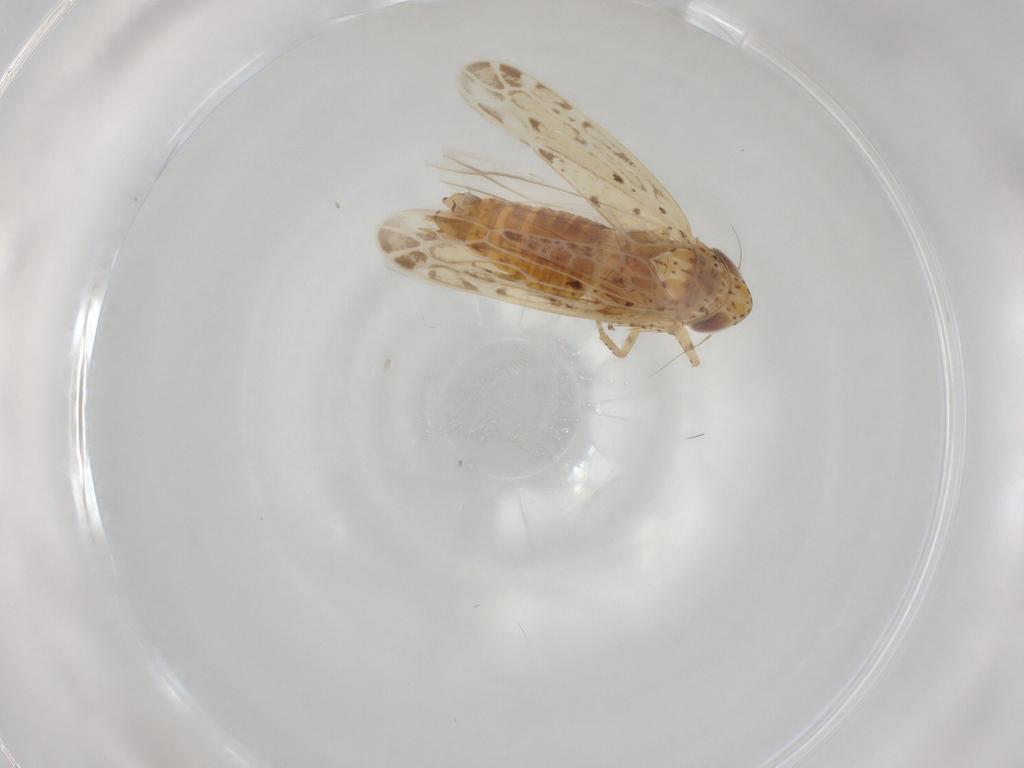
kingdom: Animalia
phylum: Arthropoda
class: Insecta
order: Hemiptera
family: Cicadellidae
